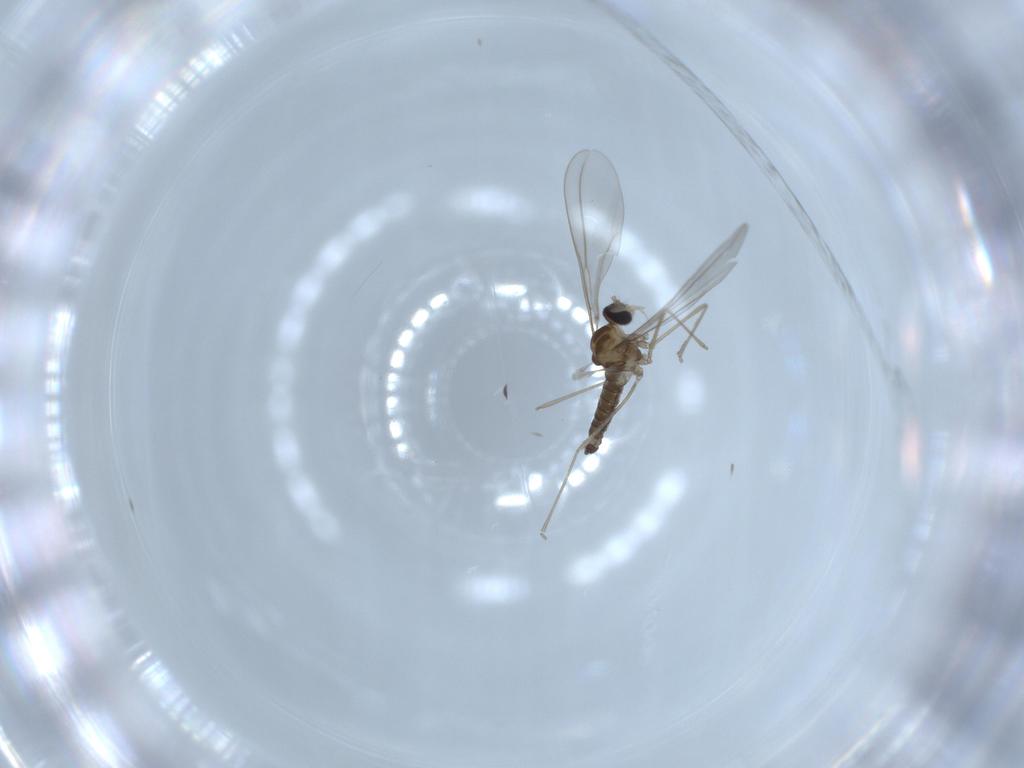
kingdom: Animalia
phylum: Arthropoda
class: Insecta
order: Diptera
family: Cecidomyiidae
